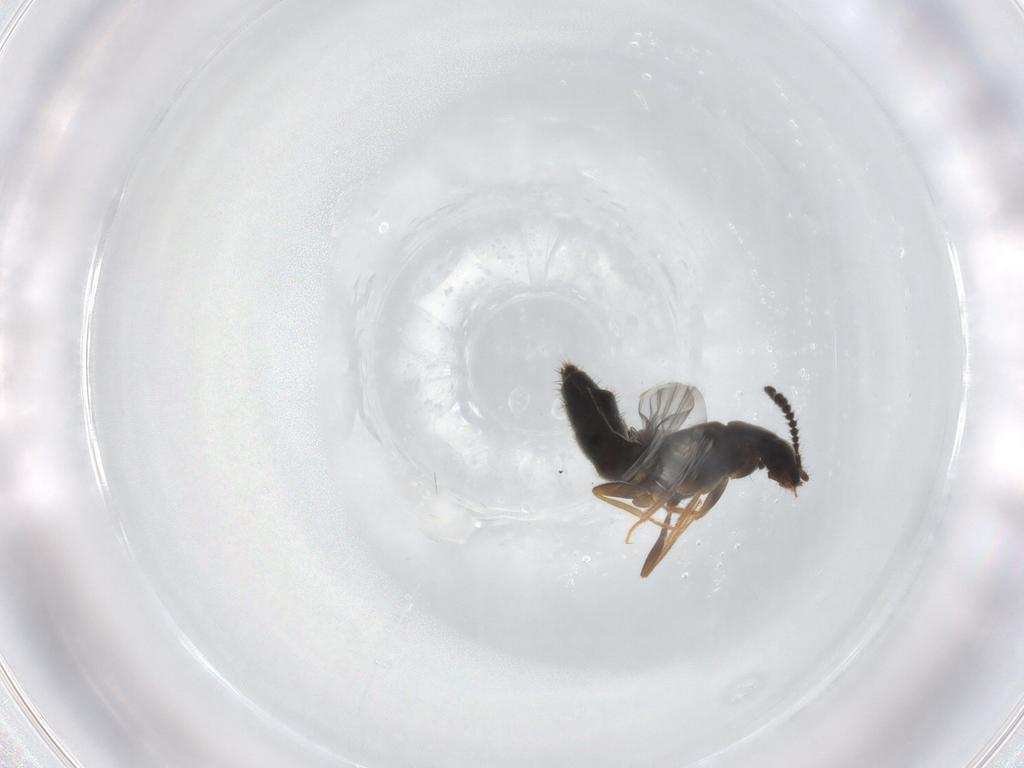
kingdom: Animalia
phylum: Arthropoda
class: Insecta
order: Coleoptera
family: Staphylinidae
